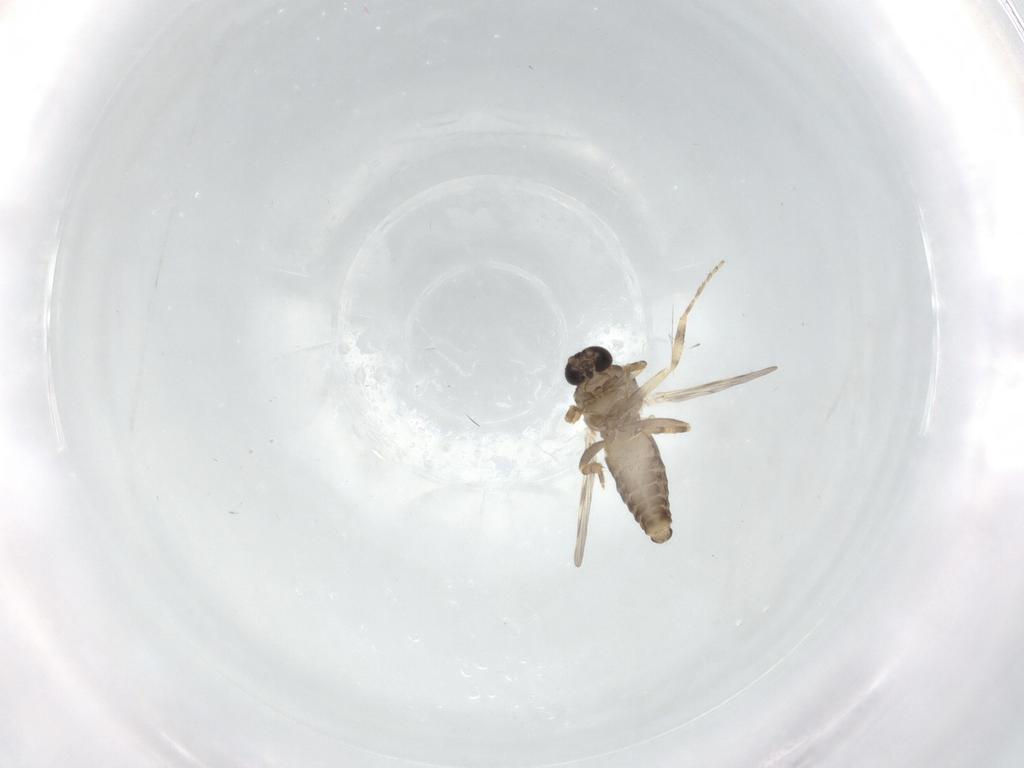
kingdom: Animalia
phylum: Arthropoda
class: Insecta
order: Diptera
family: Ceratopogonidae
